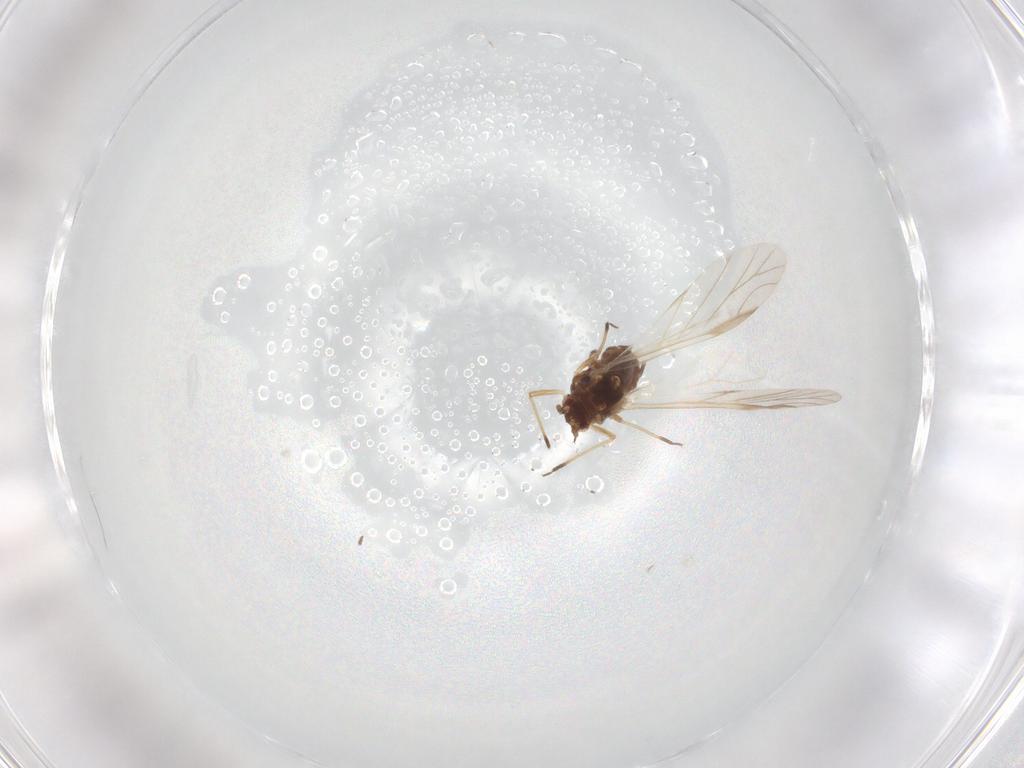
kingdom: Animalia
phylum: Arthropoda
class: Insecta
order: Hemiptera
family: Aphididae
